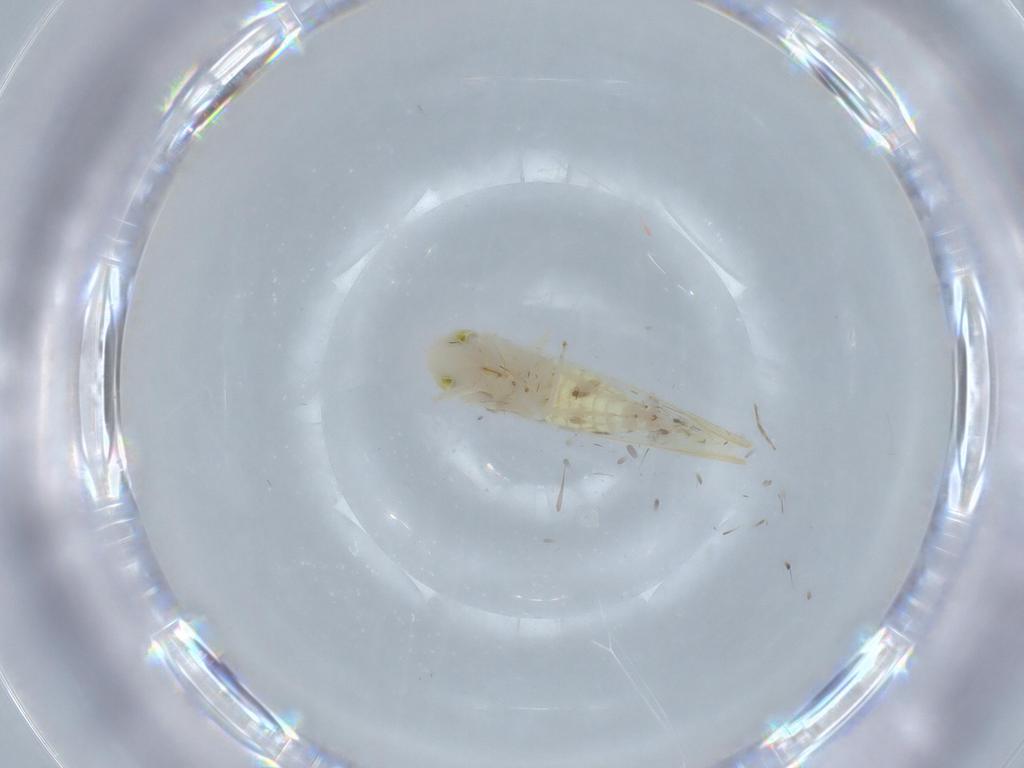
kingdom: Animalia
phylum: Arthropoda
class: Insecta
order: Hemiptera
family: Cicadellidae
